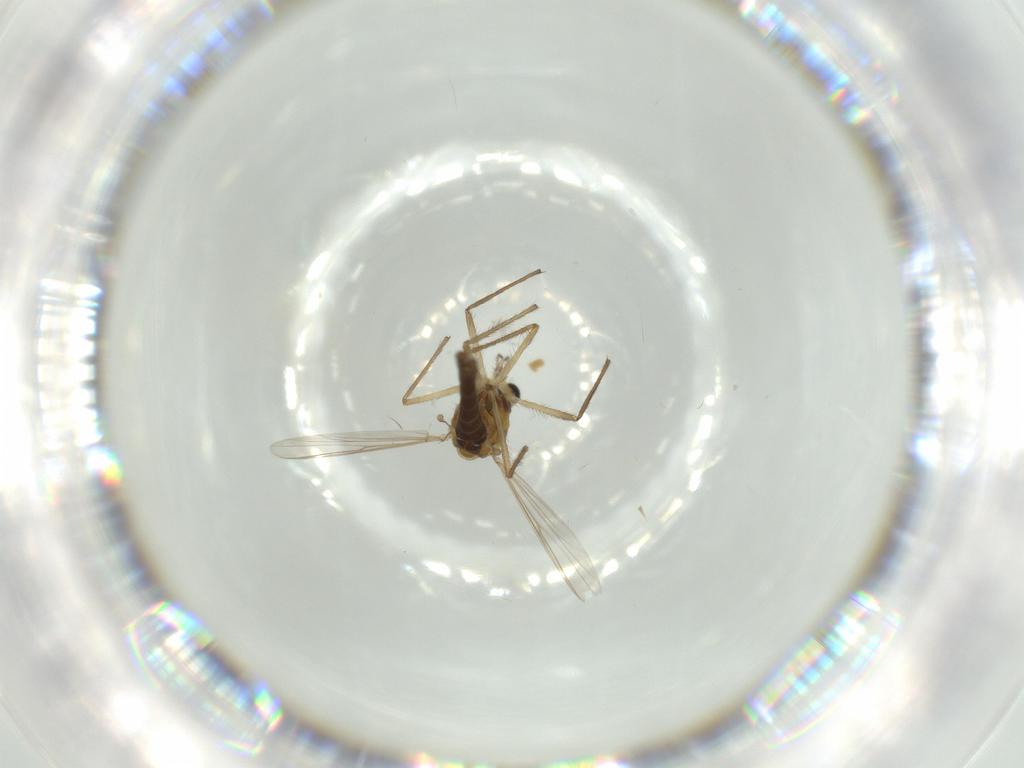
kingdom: Animalia
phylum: Arthropoda
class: Insecta
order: Diptera
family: Chironomidae
